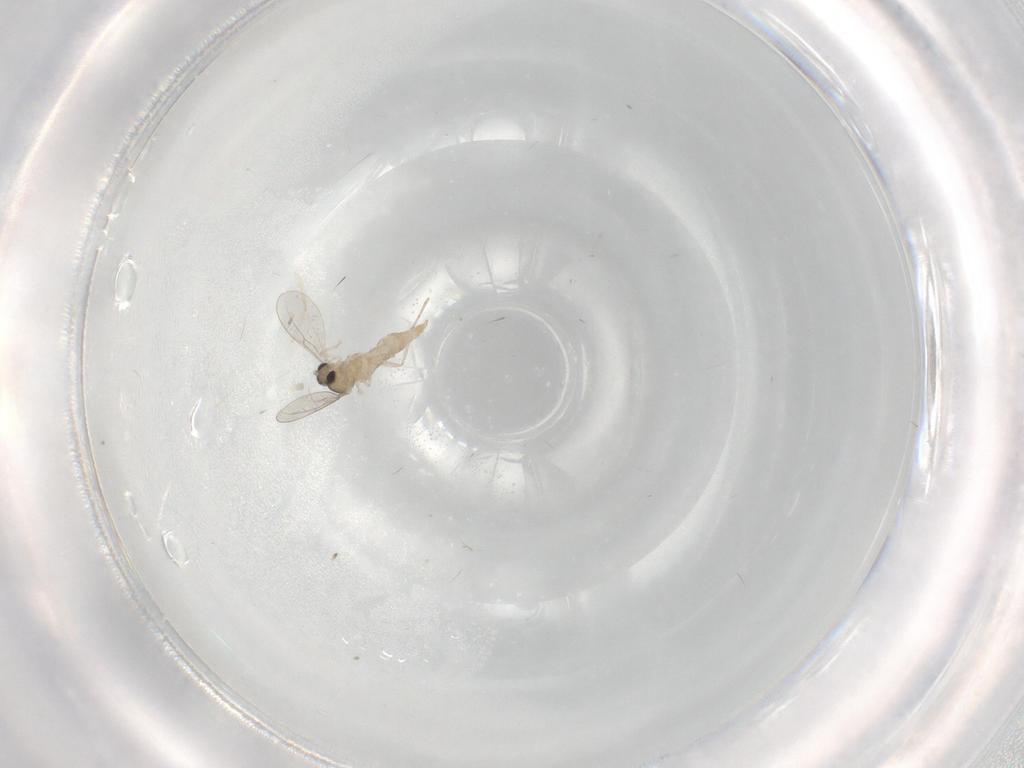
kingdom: Animalia
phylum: Arthropoda
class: Insecta
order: Diptera
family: Cecidomyiidae
